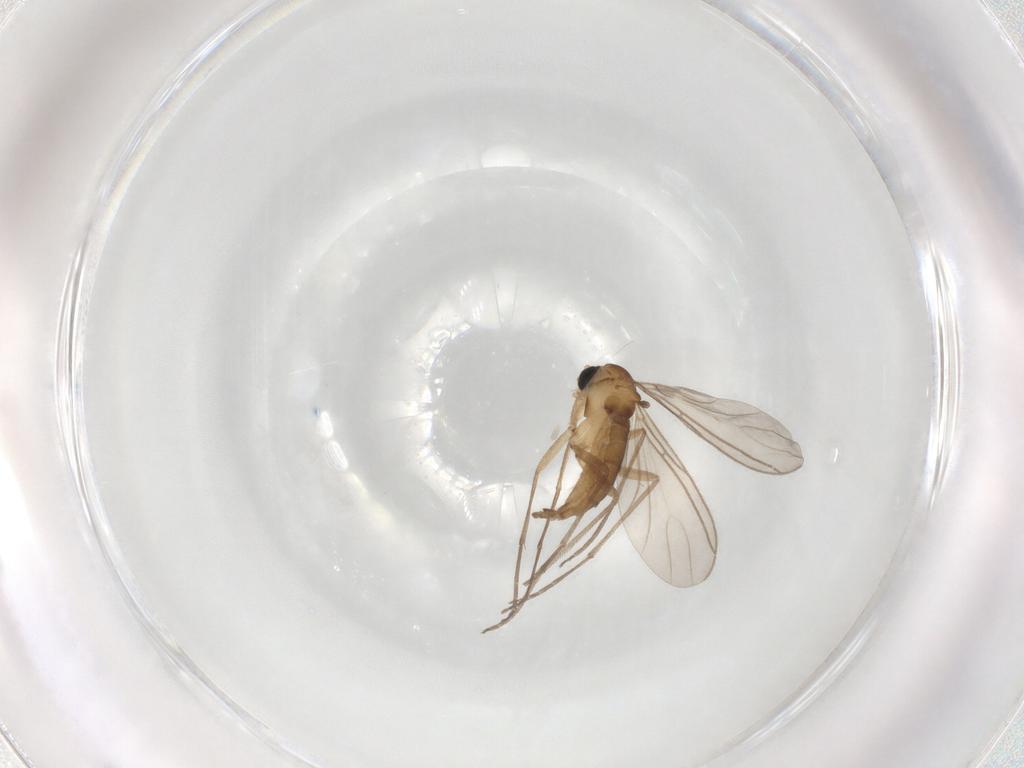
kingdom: Animalia
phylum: Arthropoda
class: Insecta
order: Diptera
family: Sciaridae
